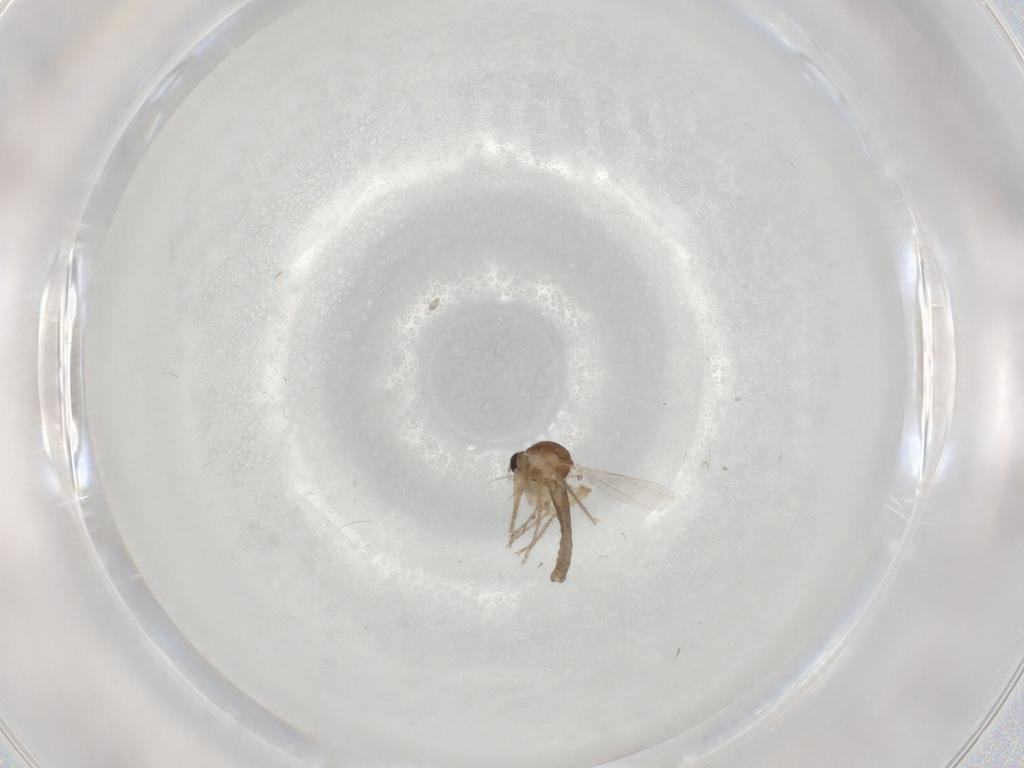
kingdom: Animalia
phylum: Arthropoda
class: Insecta
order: Diptera
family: Ceratopogonidae
